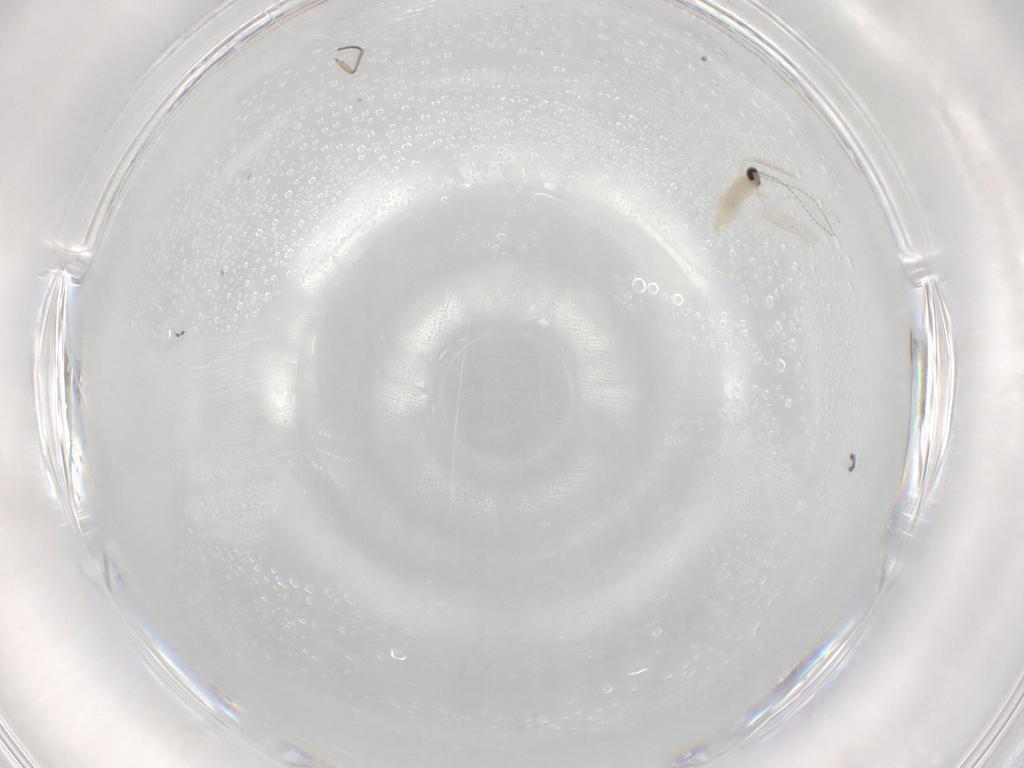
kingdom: Animalia
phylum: Arthropoda
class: Insecta
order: Diptera
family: Cecidomyiidae
